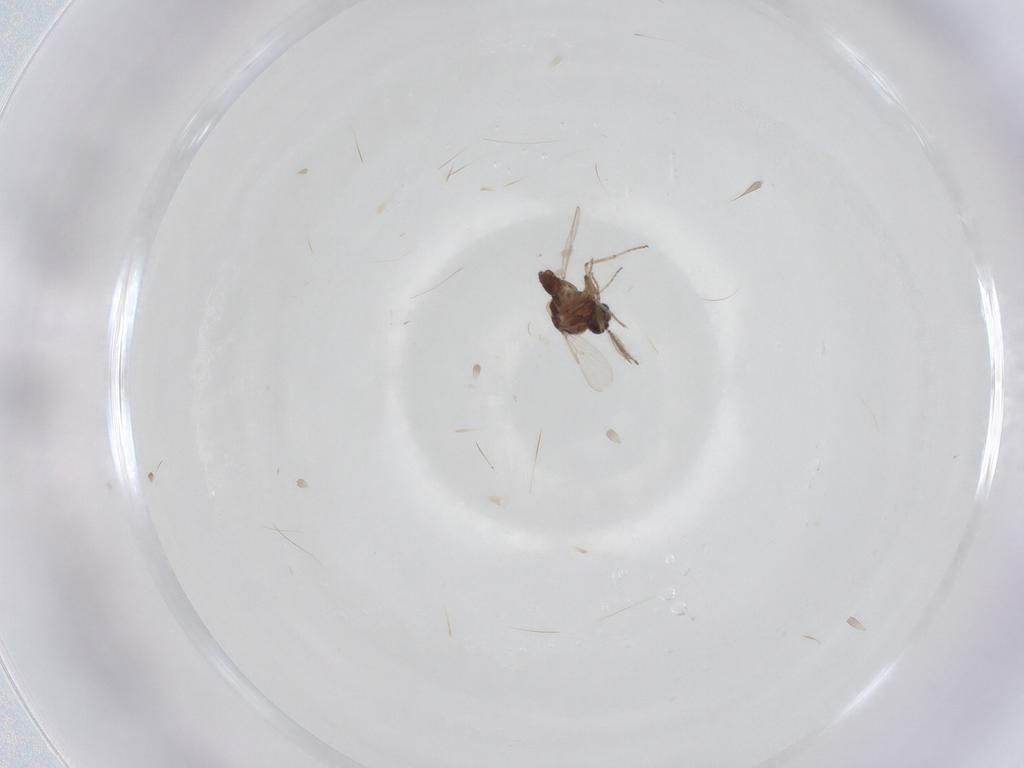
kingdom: Animalia
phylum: Arthropoda
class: Insecta
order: Diptera
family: Ceratopogonidae
